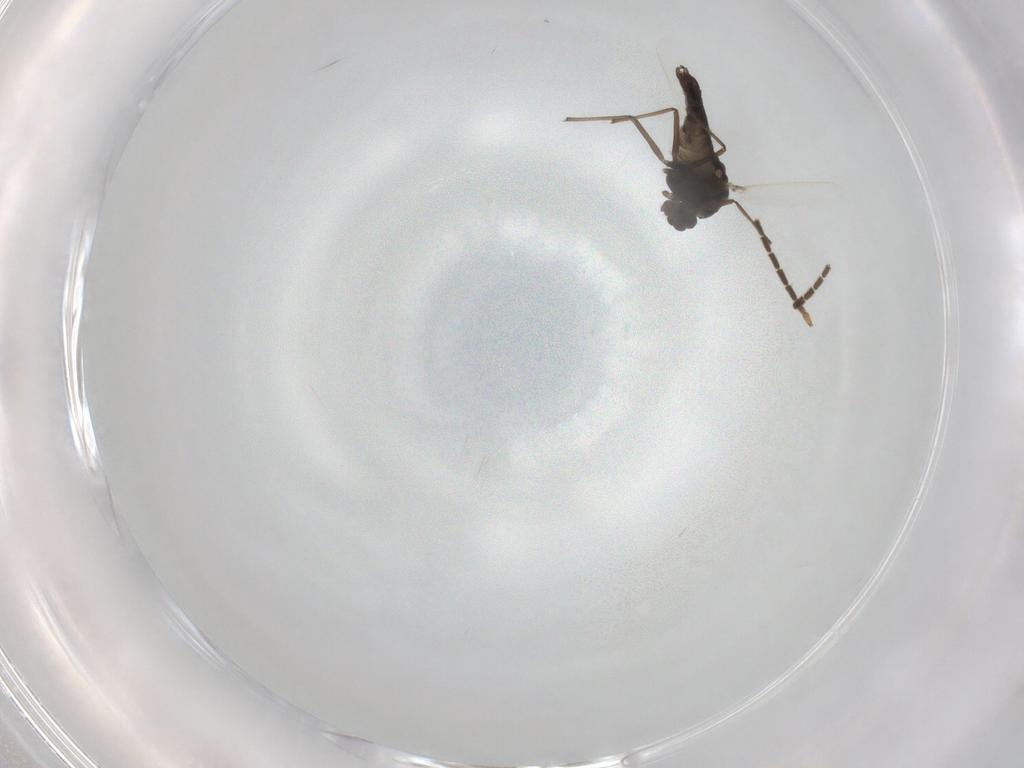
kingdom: Animalia
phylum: Arthropoda
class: Insecta
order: Diptera
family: Chironomidae
